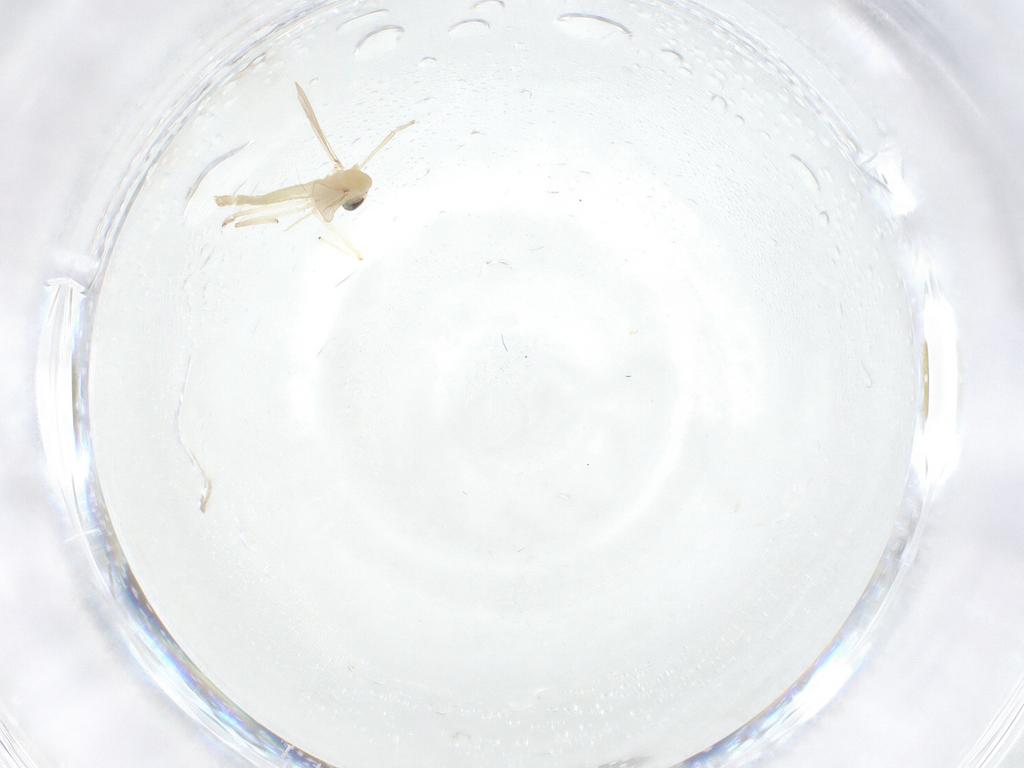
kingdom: Animalia
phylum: Arthropoda
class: Insecta
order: Diptera
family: Chironomidae
